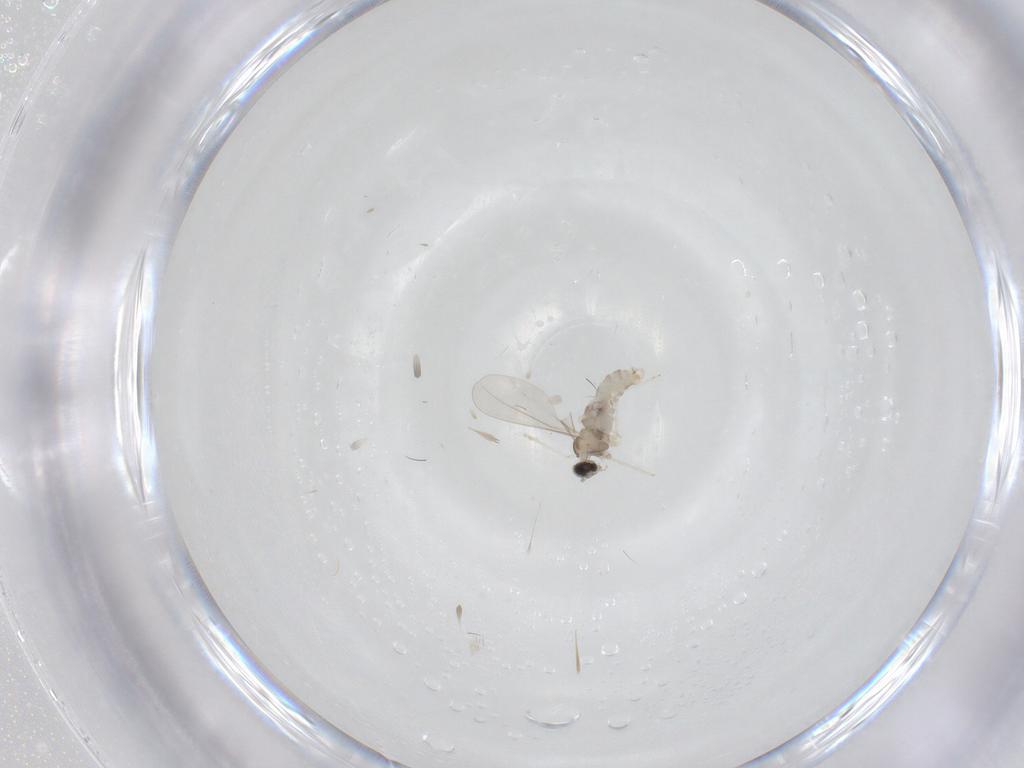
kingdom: Animalia
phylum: Arthropoda
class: Insecta
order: Diptera
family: Cecidomyiidae
